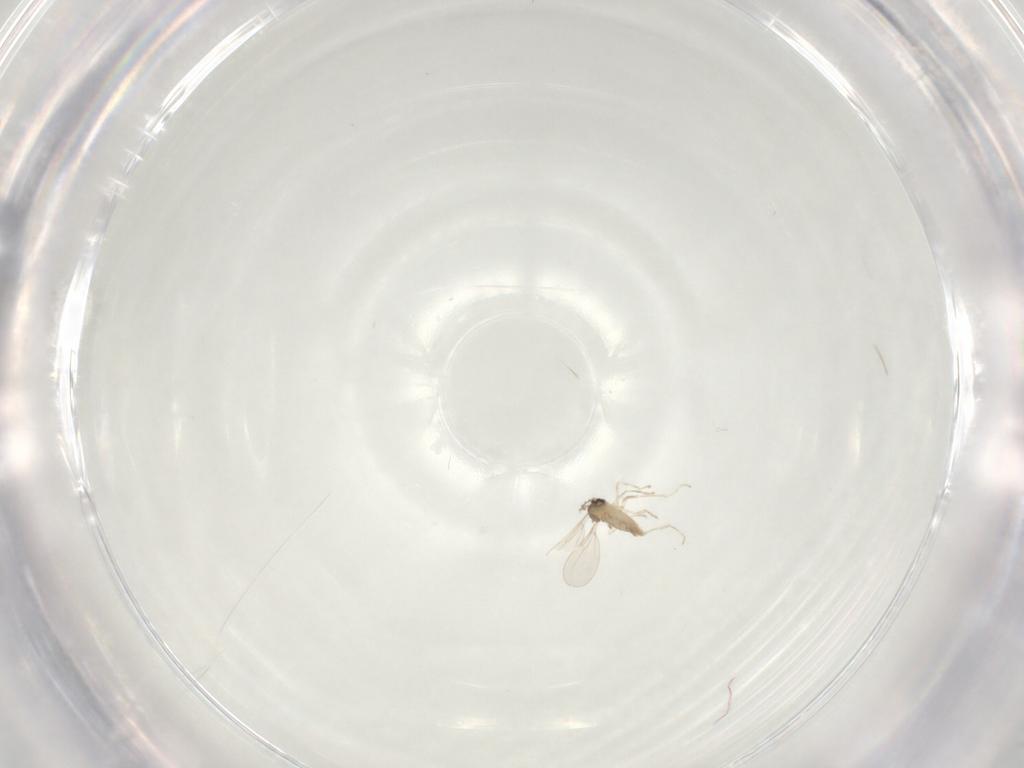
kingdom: Animalia
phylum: Arthropoda
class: Insecta
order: Diptera
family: Cecidomyiidae
